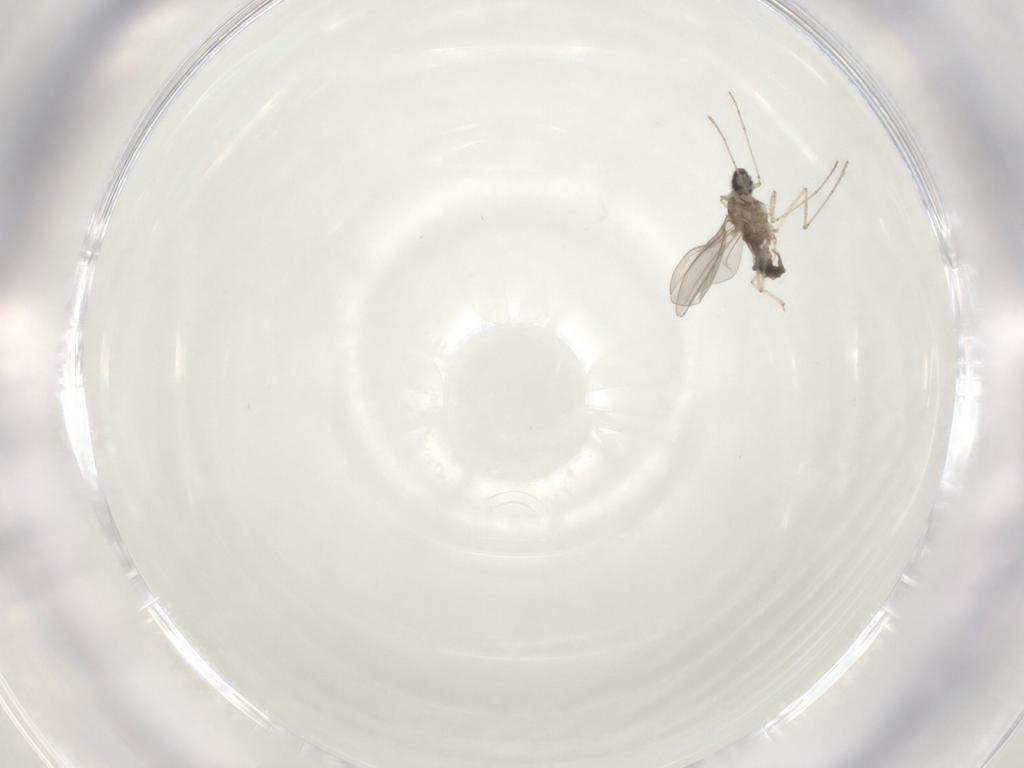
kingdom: Animalia
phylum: Arthropoda
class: Insecta
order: Diptera
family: Cecidomyiidae
